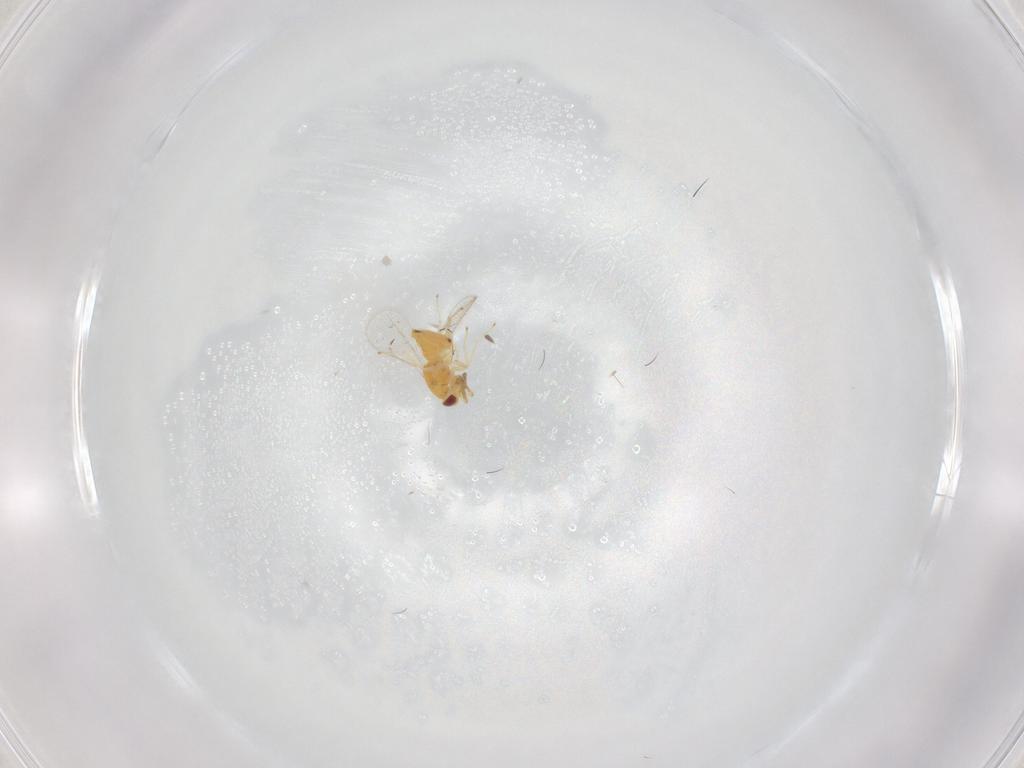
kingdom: Animalia
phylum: Arthropoda
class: Insecta
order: Hymenoptera
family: Eulophidae
